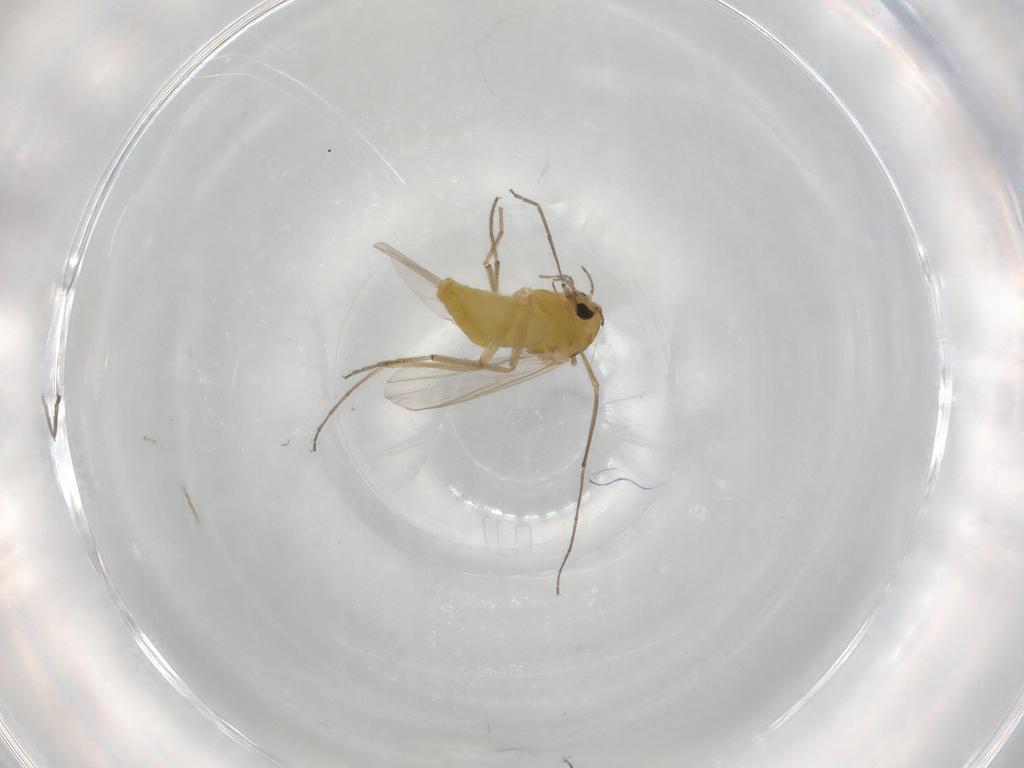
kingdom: Animalia
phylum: Arthropoda
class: Insecta
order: Diptera
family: Chironomidae
